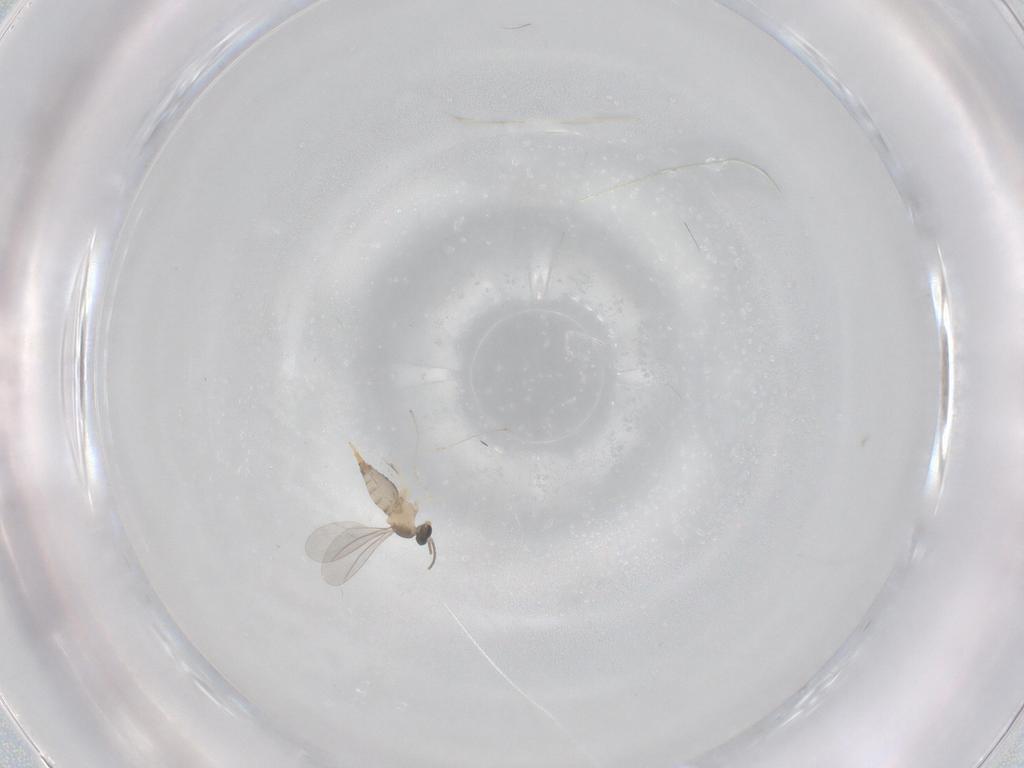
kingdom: Animalia
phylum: Arthropoda
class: Insecta
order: Diptera
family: Cecidomyiidae
